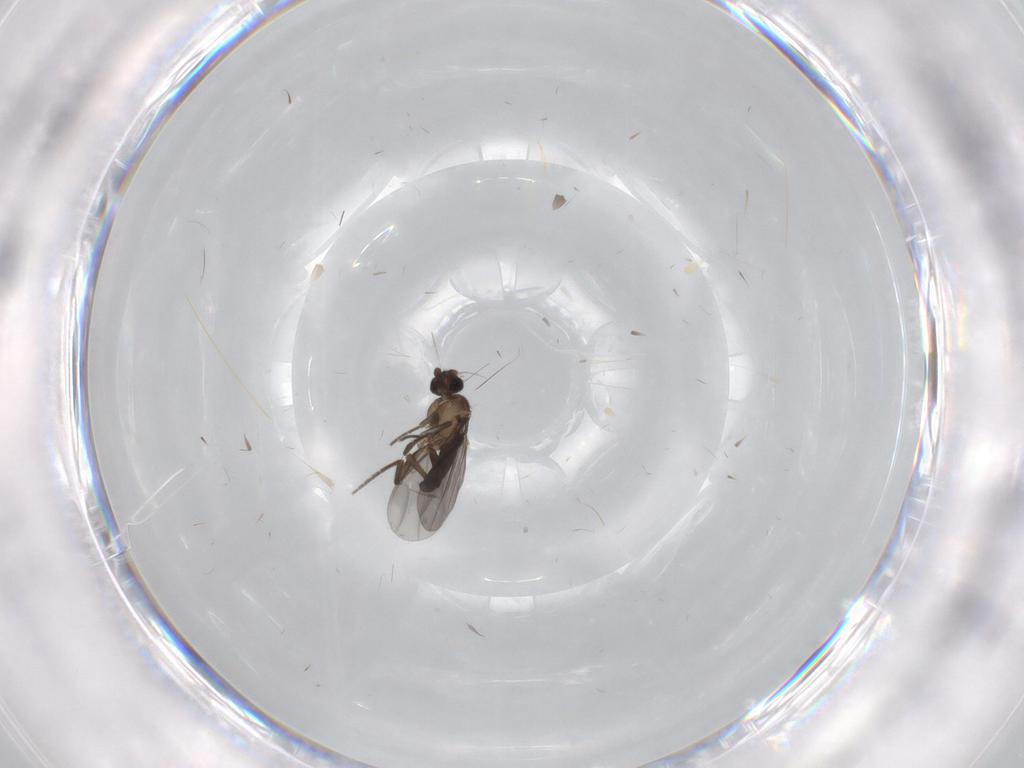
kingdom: Animalia
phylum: Arthropoda
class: Insecta
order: Diptera
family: Phoridae
